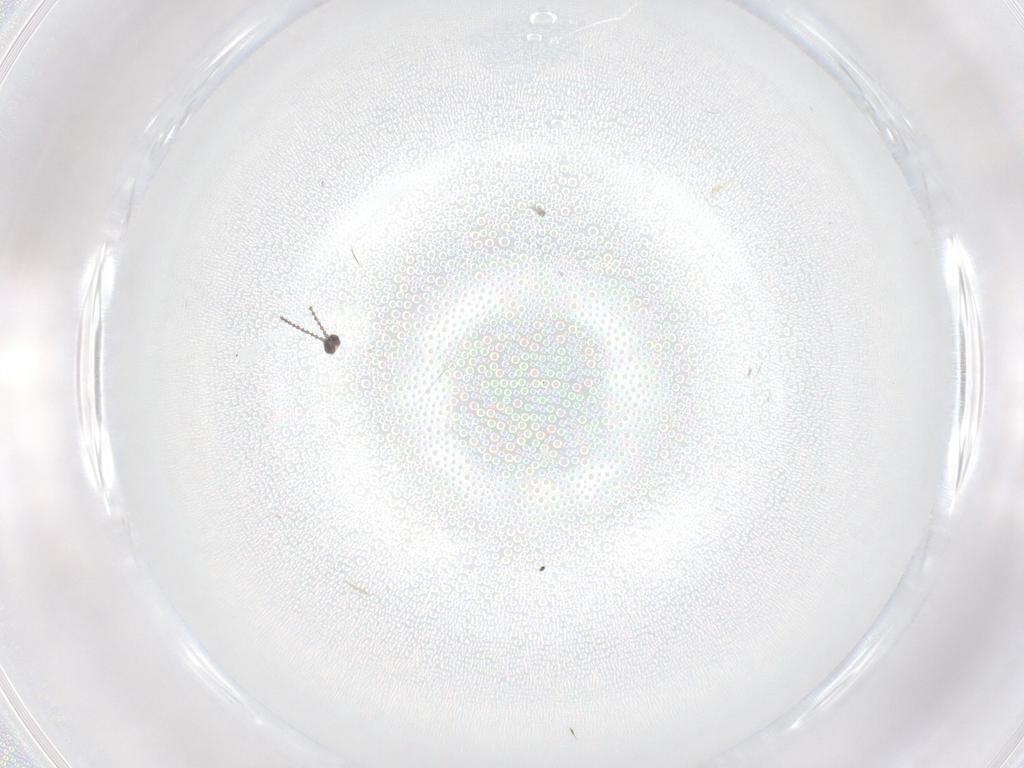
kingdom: Animalia
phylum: Arthropoda
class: Insecta
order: Diptera
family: Psychodidae
